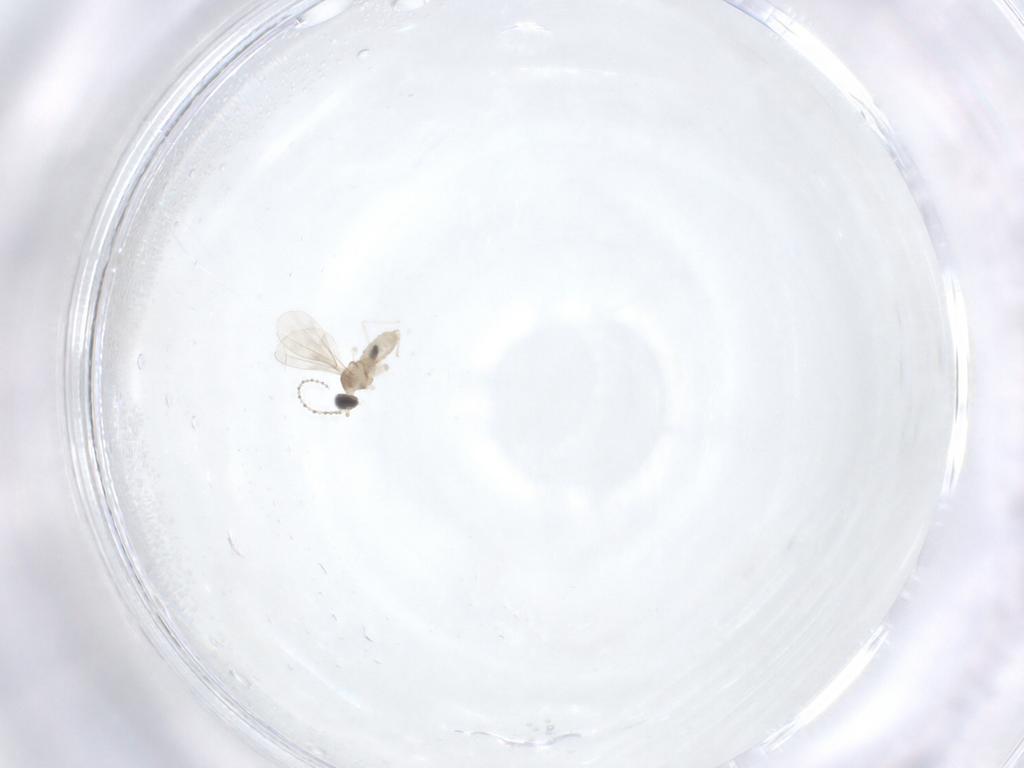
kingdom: Animalia
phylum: Arthropoda
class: Insecta
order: Diptera
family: Cecidomyiidae
